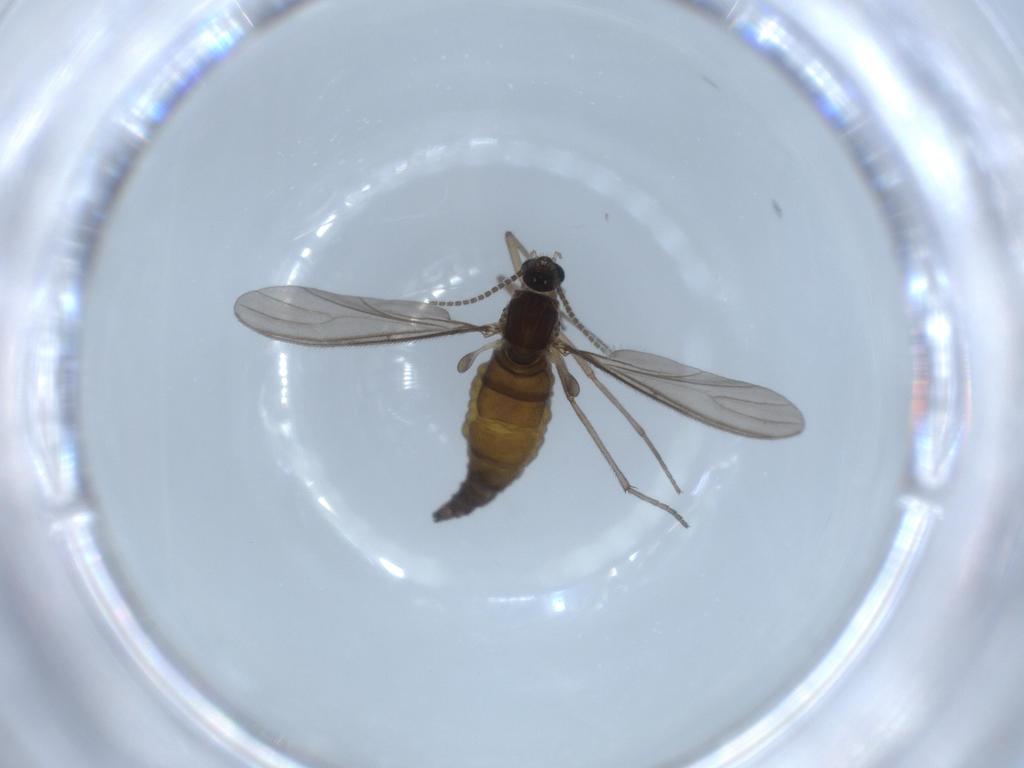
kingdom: Animalia
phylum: Arthropoda
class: Insecta
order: Diptera
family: Sciaridae
